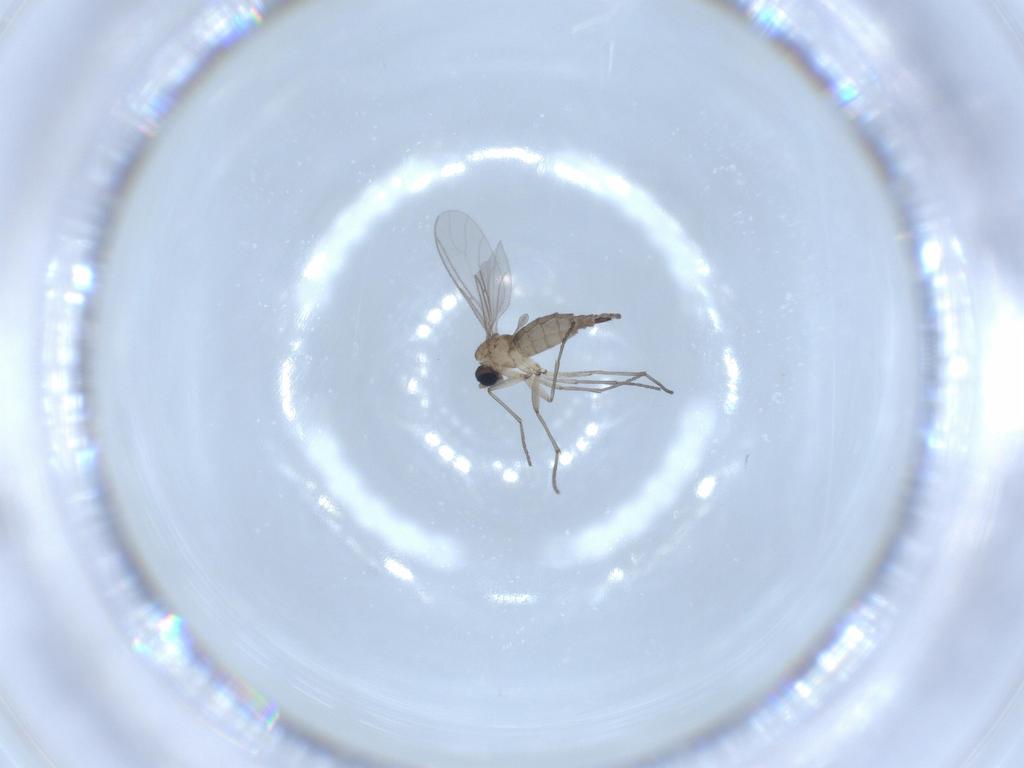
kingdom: Animalia
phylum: Arthropoda
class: Insecta
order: Diptera
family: Sciaridae
